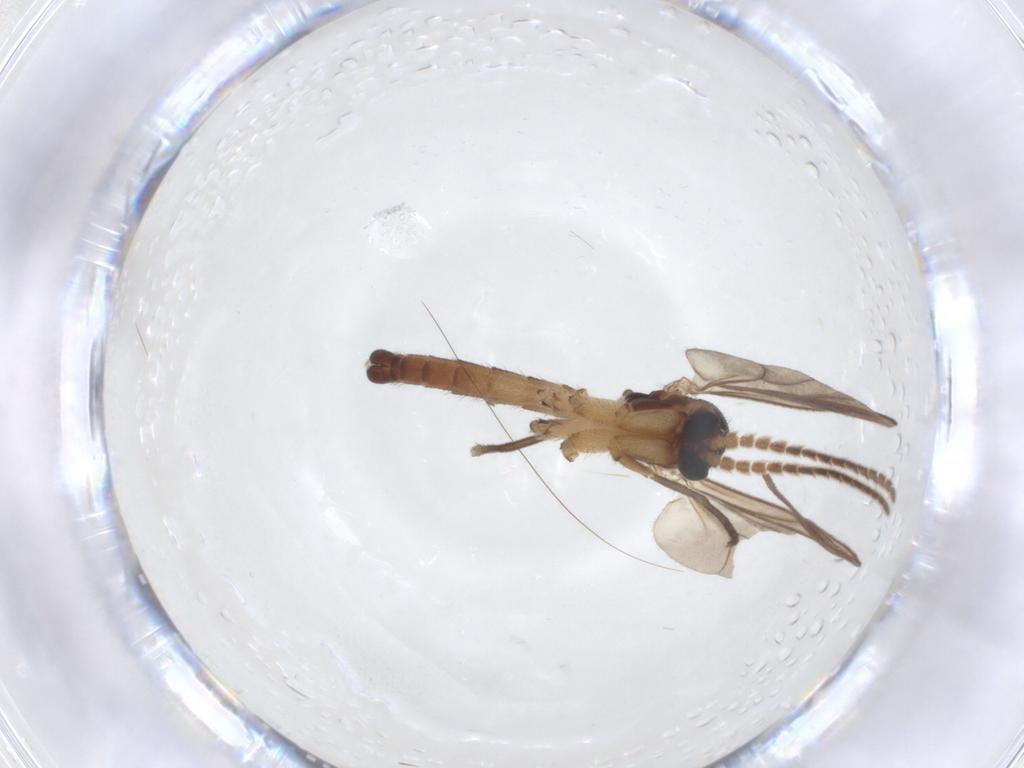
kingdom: Animalia
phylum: Arthropoda
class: Insecta
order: Diptera
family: Mycetophilidae
